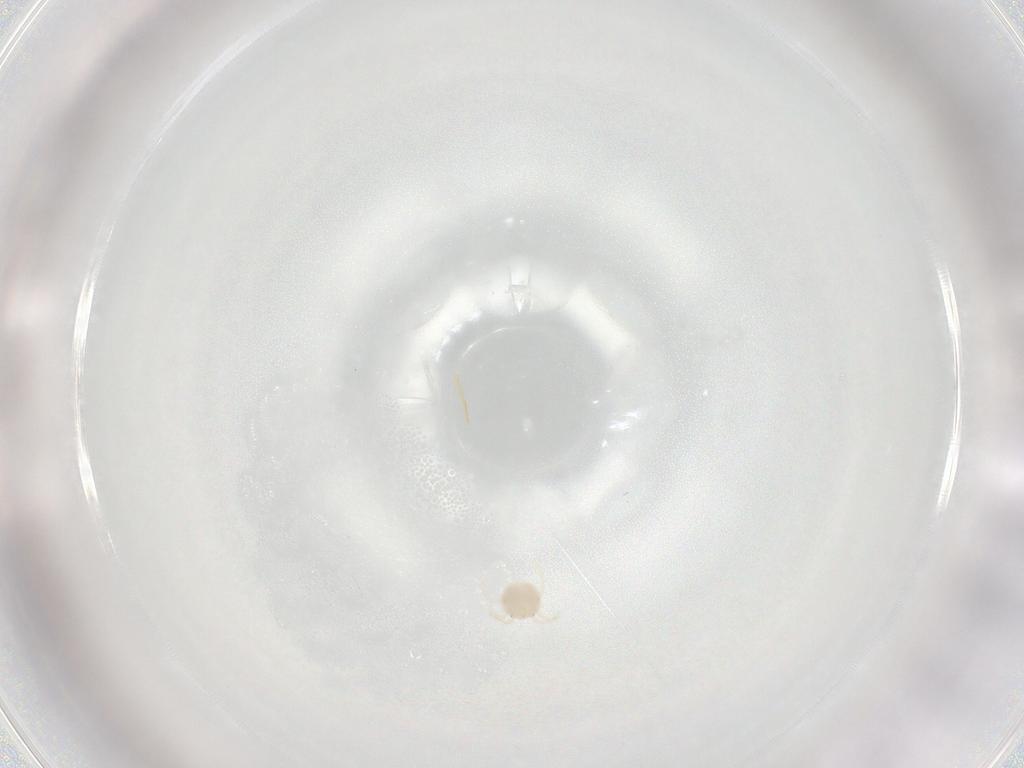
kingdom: Animalia
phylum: Arthropoda
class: Arachnida
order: Trombidiformes
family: Sperchontidae
